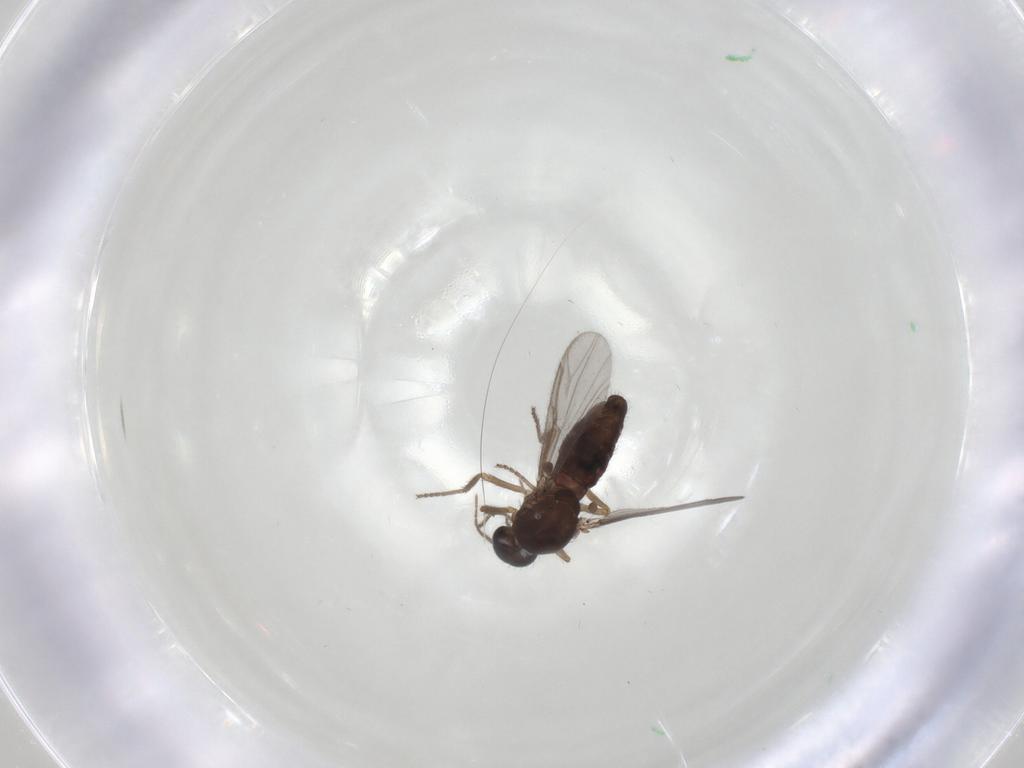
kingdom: Animalia
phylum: Arthropoda
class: Insecta
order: Diptera
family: Ceratopogonidae
